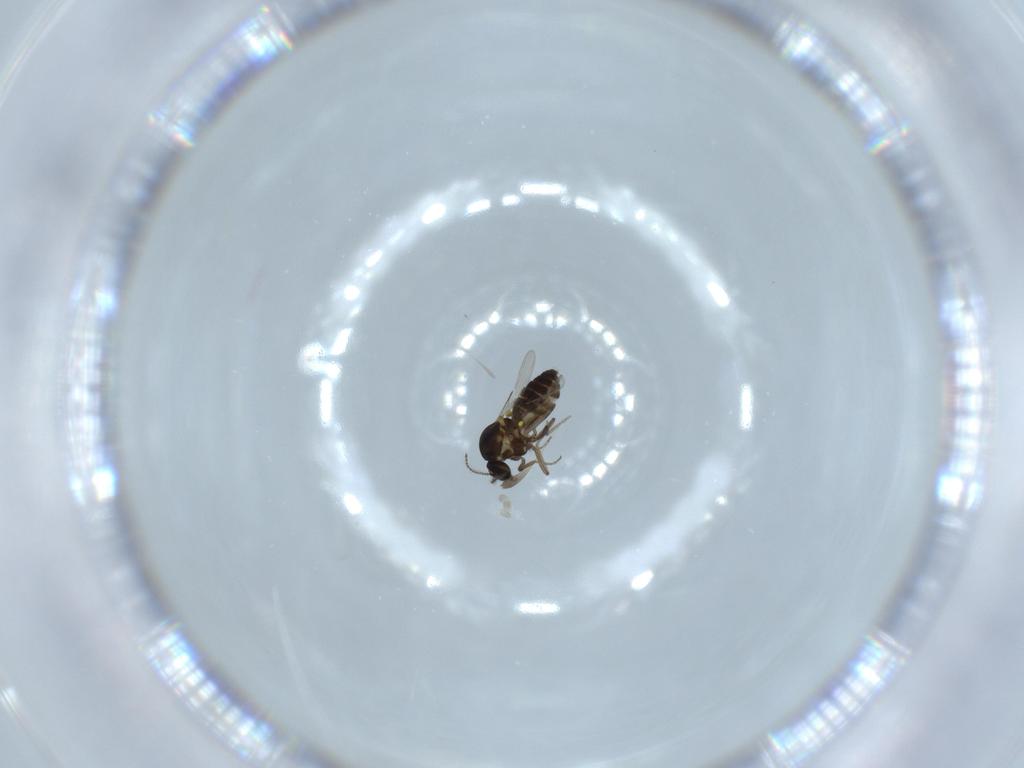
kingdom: Animalia
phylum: Arthropoda
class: Insecta
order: Diptera
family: Ceratopogonidae
